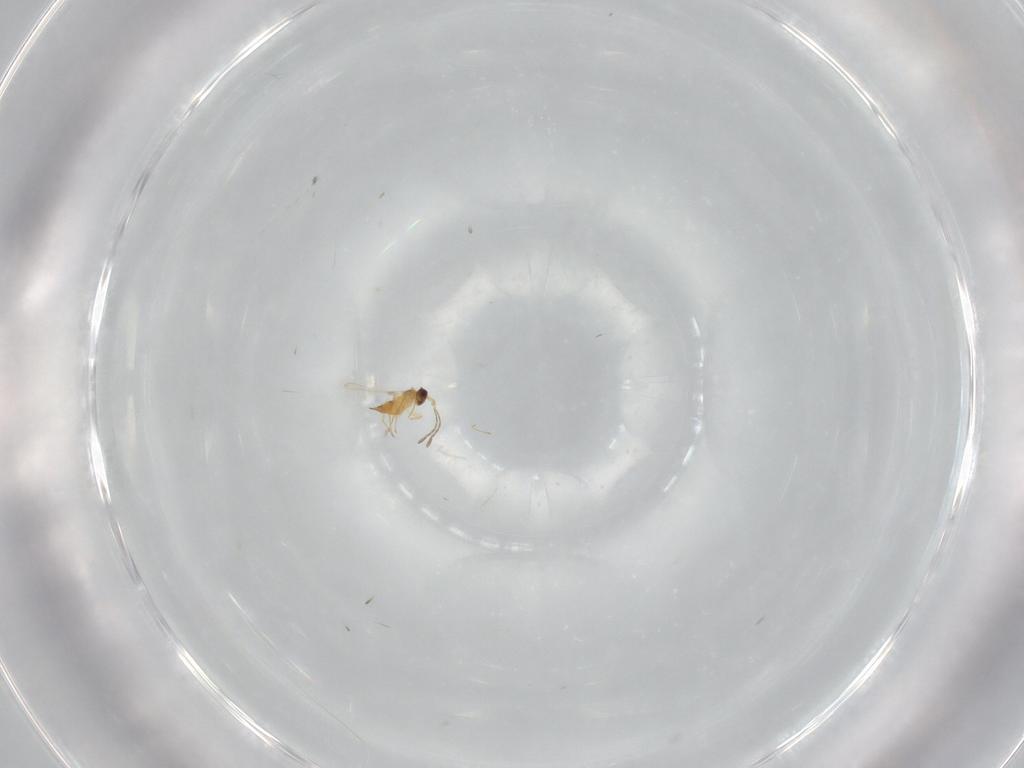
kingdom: Animalia
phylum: Arthropoda
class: Insecta
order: Hymenoptera
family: Mymaridae
